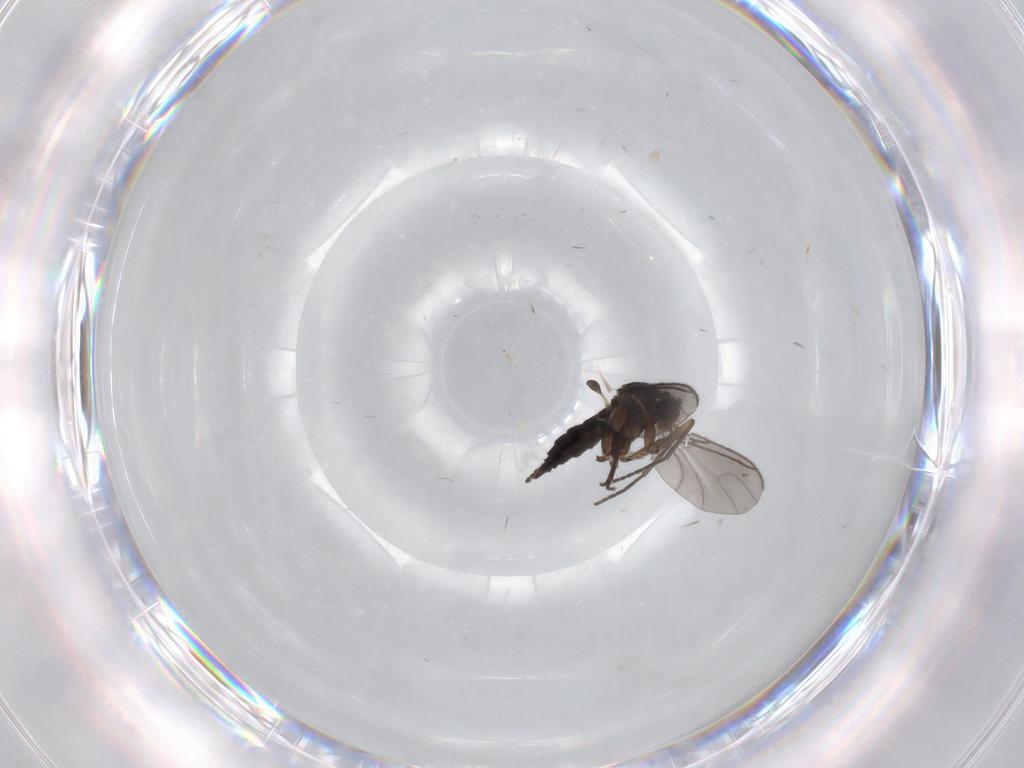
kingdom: Animalia
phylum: Arthropoda
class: Insecta
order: Diptera
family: Sciaridae
